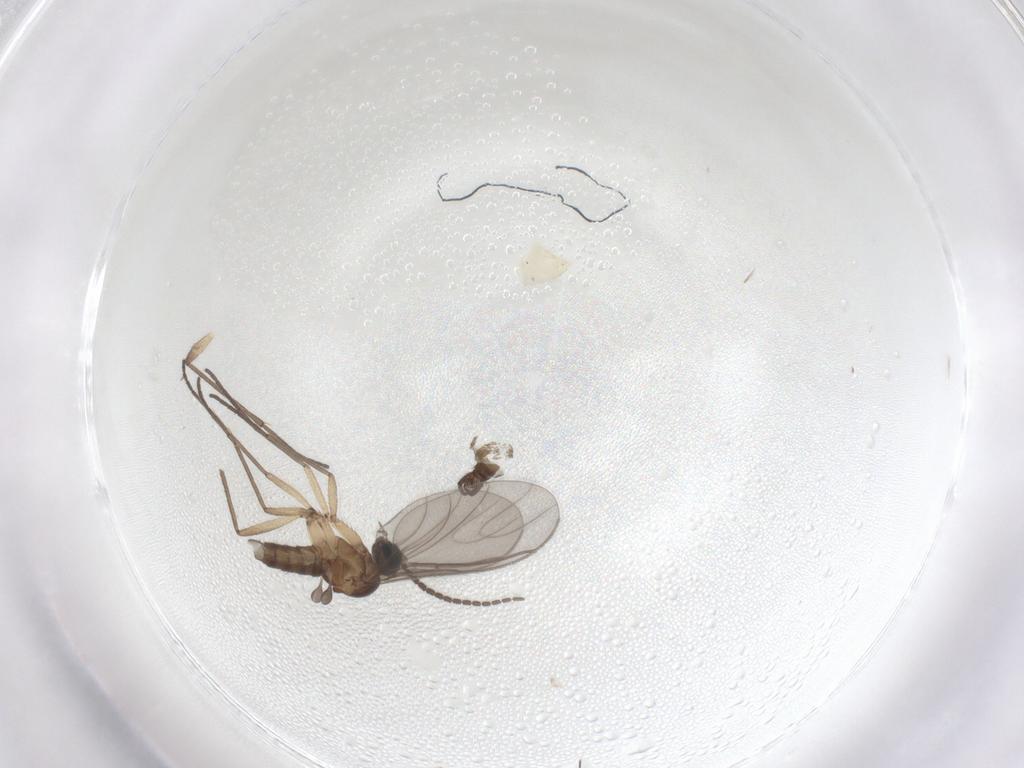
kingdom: Animalia
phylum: Arthropoda
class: Insecta
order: Diptera
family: Sciaridae
